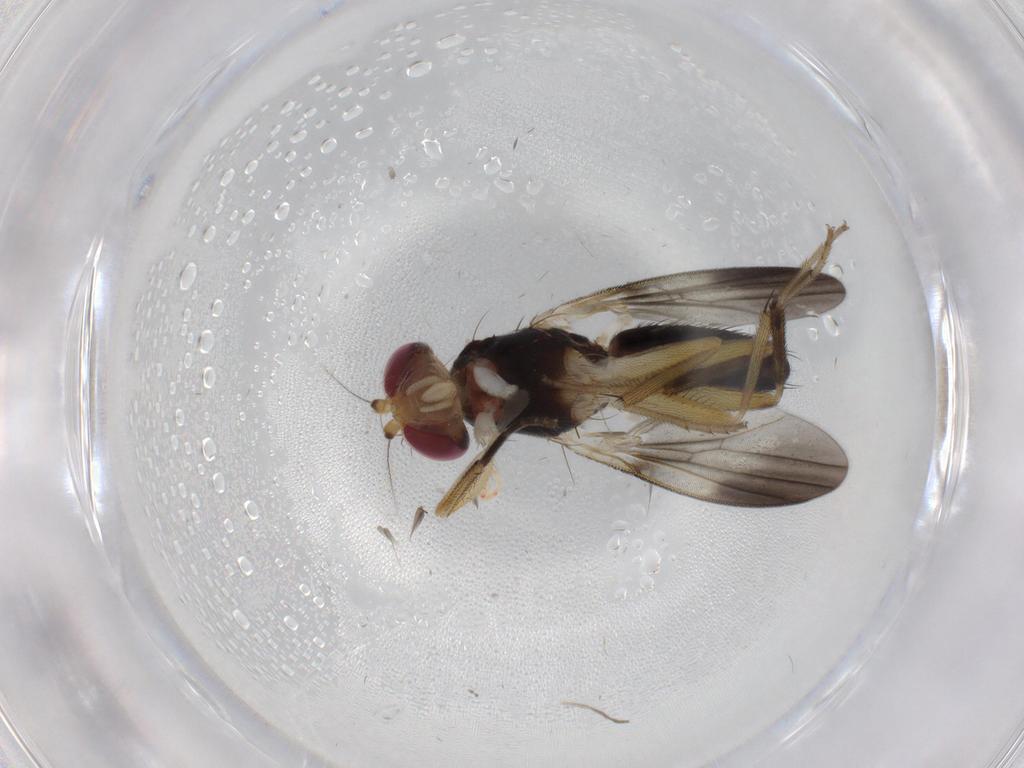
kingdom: Animalia
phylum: Arthropoda
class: Insecta
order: Diptera
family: Clusiidae
